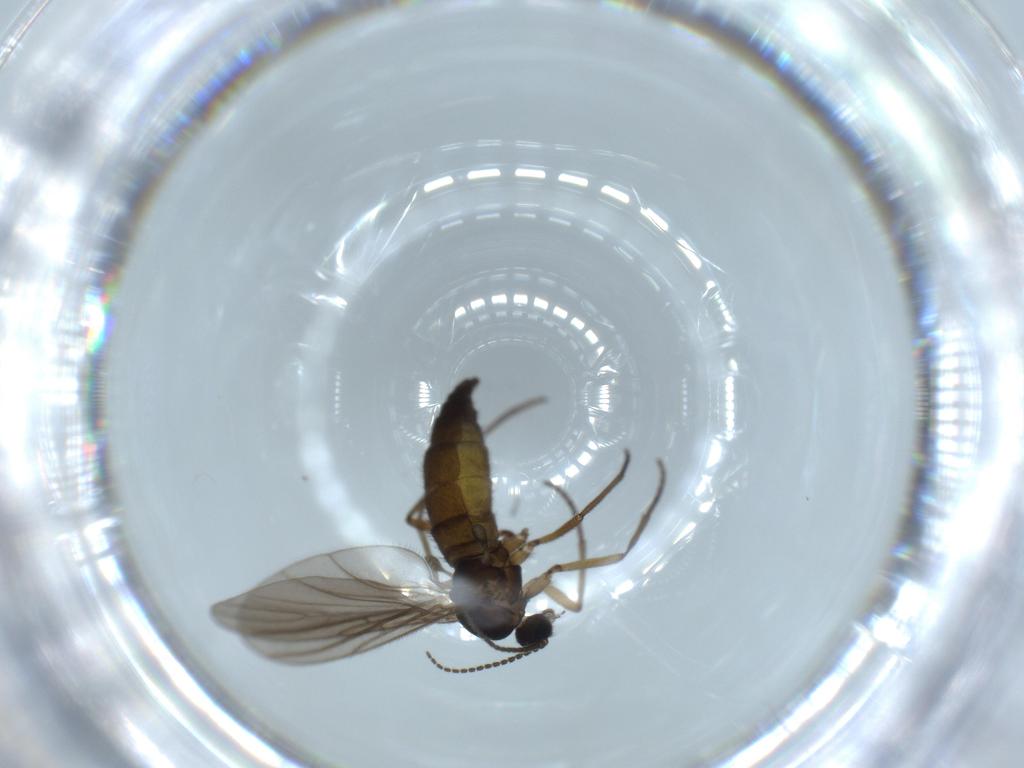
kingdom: Animalia
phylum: Arthropoda
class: Insecta
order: Diptera
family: Sciaridae
